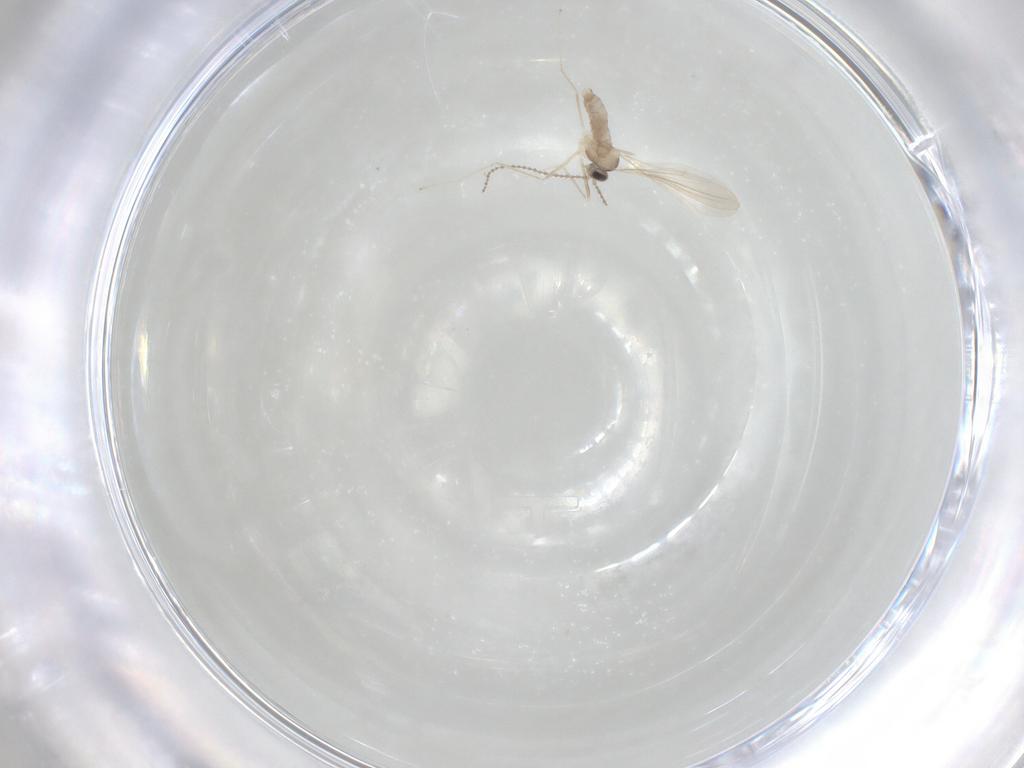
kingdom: Animalia
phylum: Arthropoda
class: Insecta
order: Diptera
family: Cecidomyiidae
